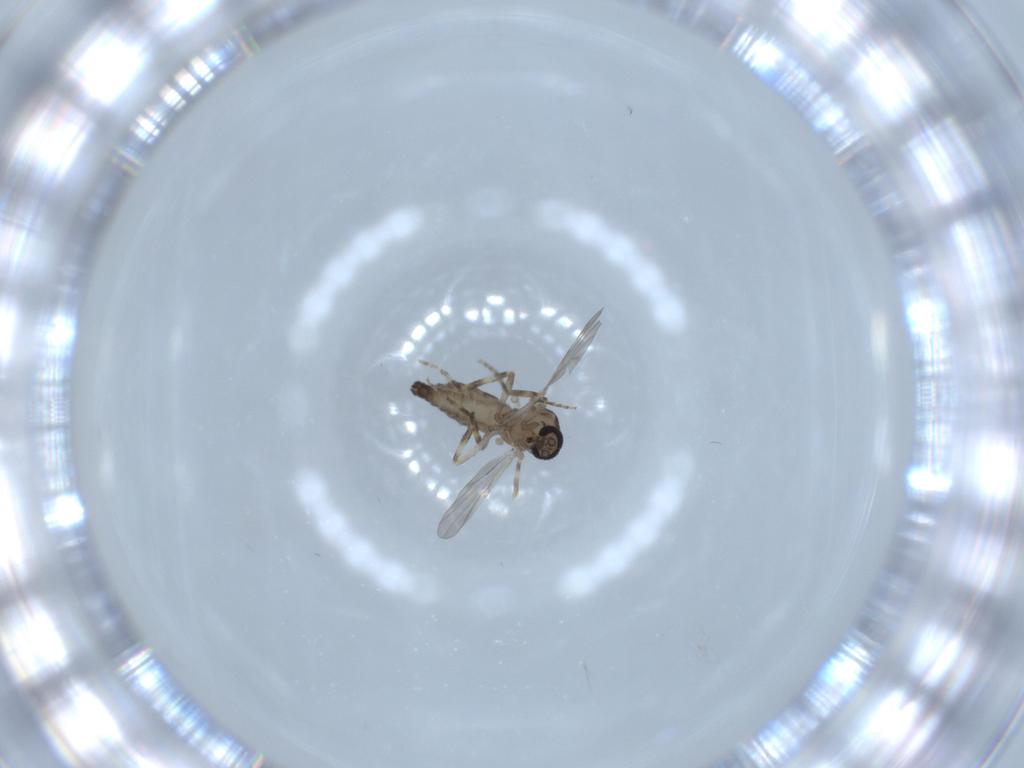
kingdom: Animalia
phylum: Arthropoda
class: Insecta
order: Diptera
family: Ceratopogonidae
